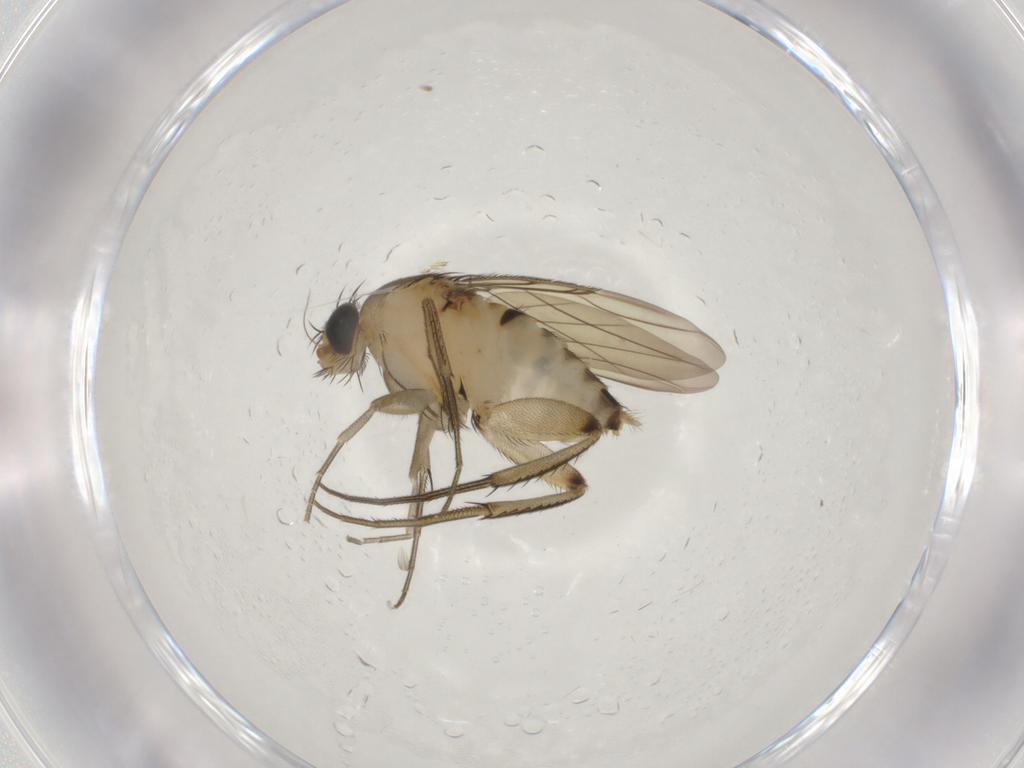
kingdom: Animalia
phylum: Arthropoda
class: Insecta
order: Diptera
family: Phoridae
